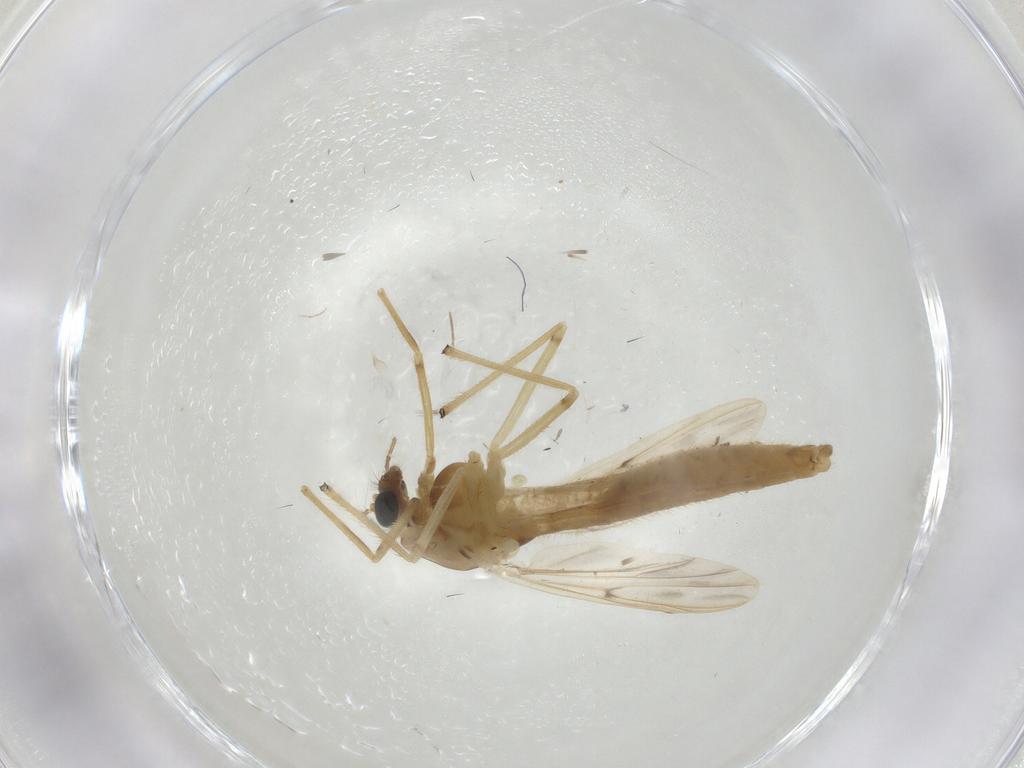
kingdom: Animalia
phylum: Arthropoda
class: Insecta
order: Diptera
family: Chironomidae
